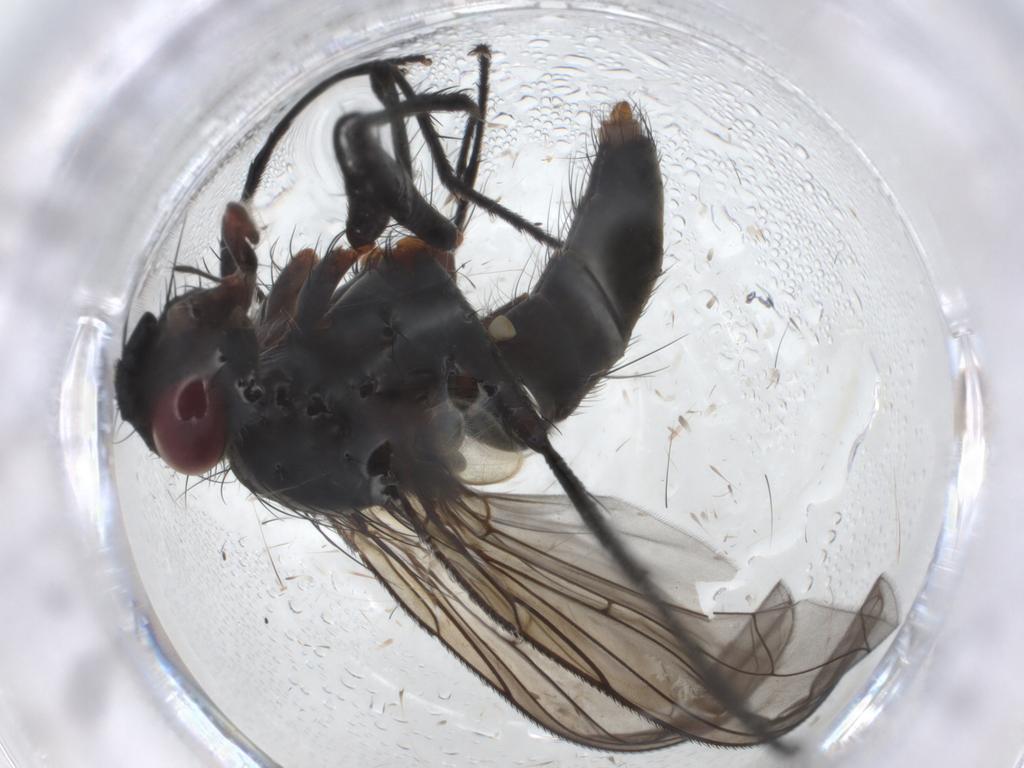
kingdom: Animalia
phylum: Arthropoda
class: Insecta
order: Diptera
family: Tachinidae
